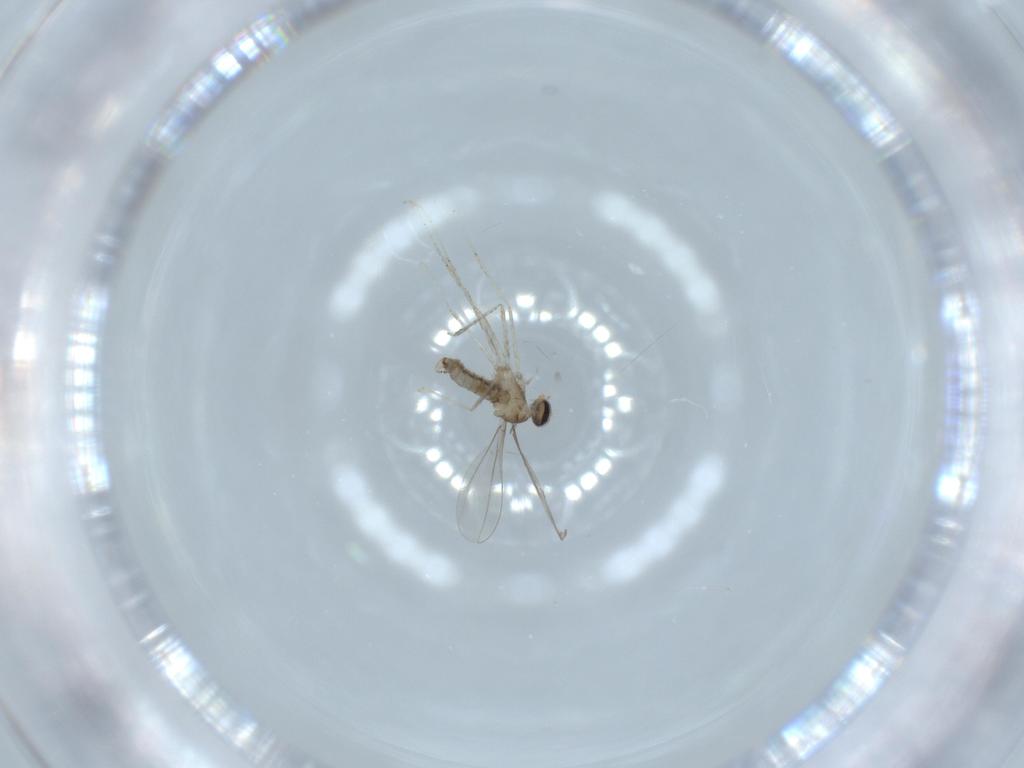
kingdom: Animalia
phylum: Arthropoda
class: Insecta
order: Diptera
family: Cecidomyiidae
